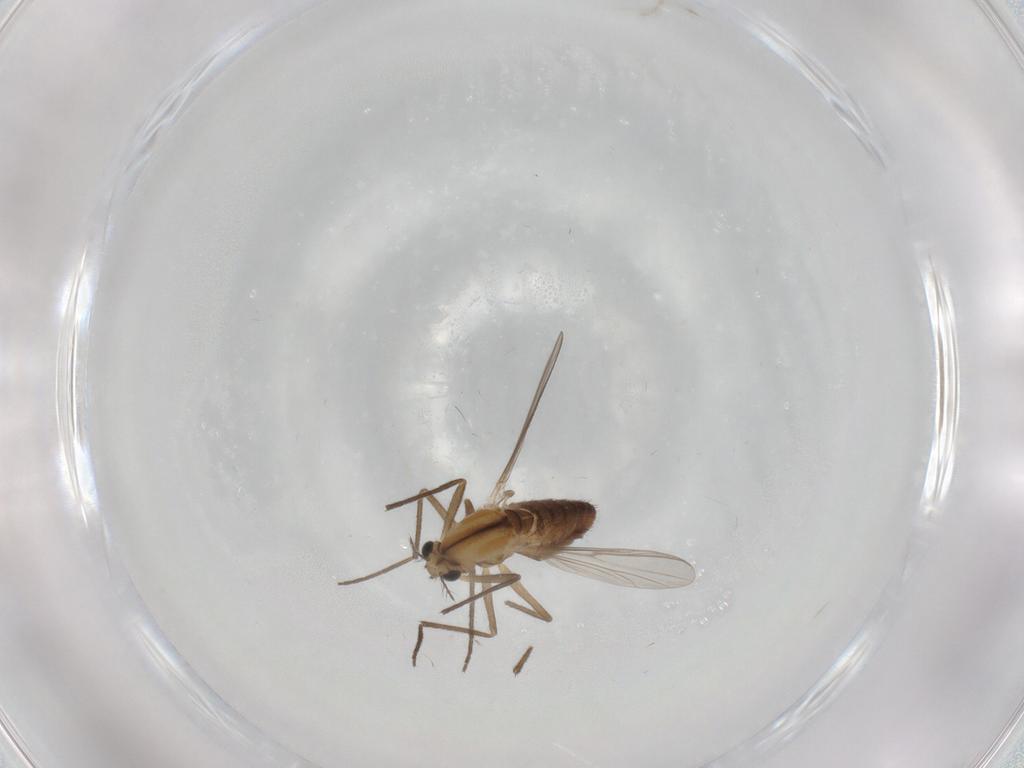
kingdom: Animalia
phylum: Arthropoda
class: Insecta
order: Diptera
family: Chironomidae
